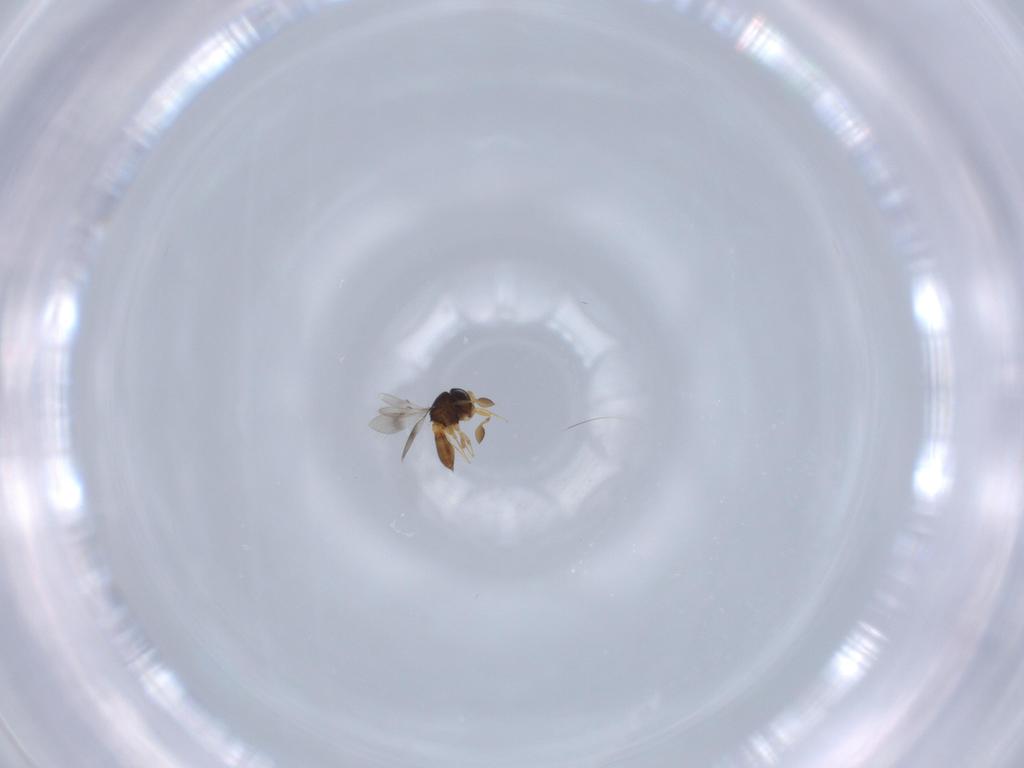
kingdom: Animalia
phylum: Arthropoda
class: Insecta
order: Hymenoptera
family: Scelionidae
